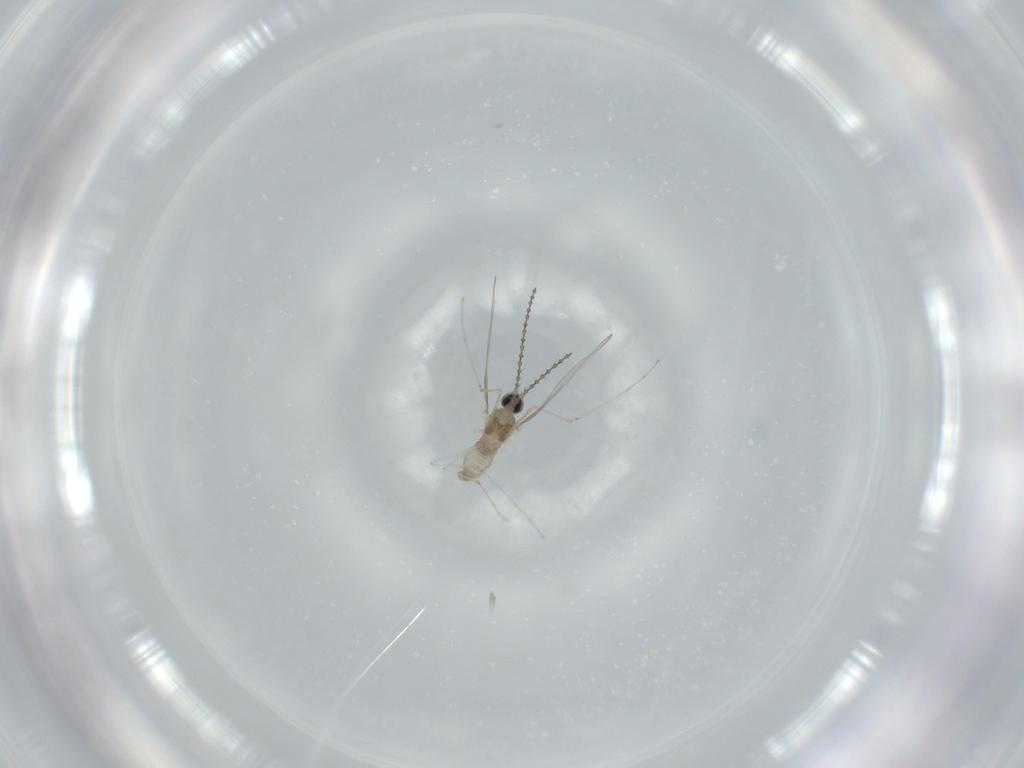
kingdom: Animalia
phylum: Arthropoda
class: Insecta
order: Diptera
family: Cecidomyiidae
